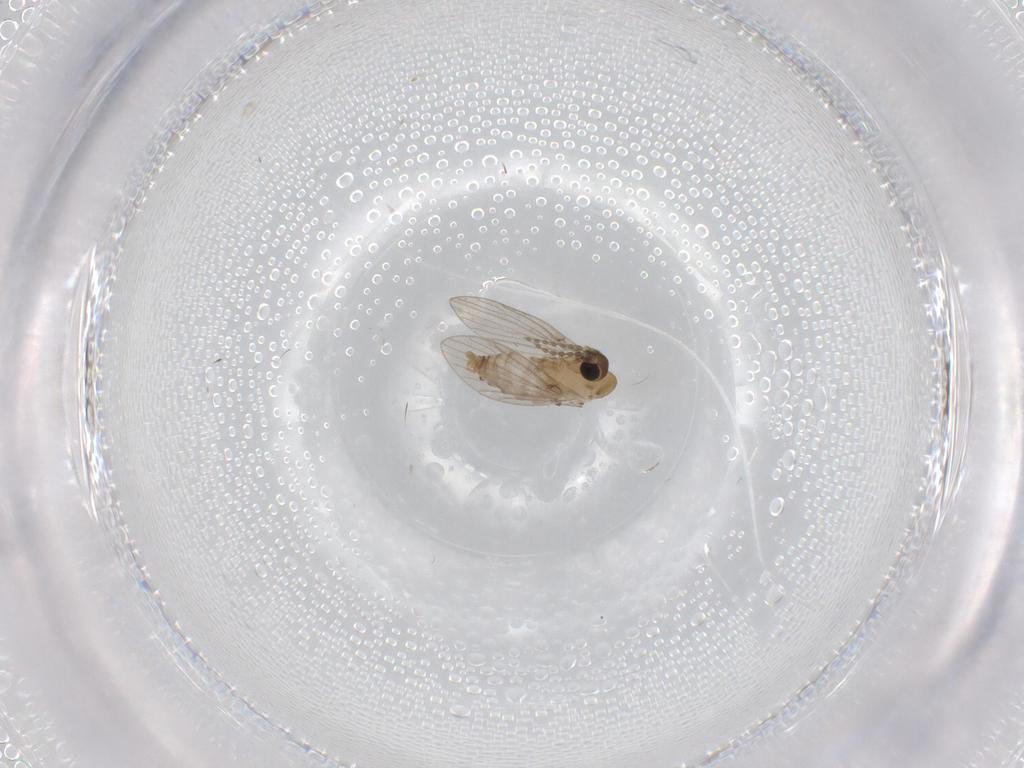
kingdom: Animalia
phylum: Arthropoda
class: Insecta
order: Diptera
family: Psychodidae
